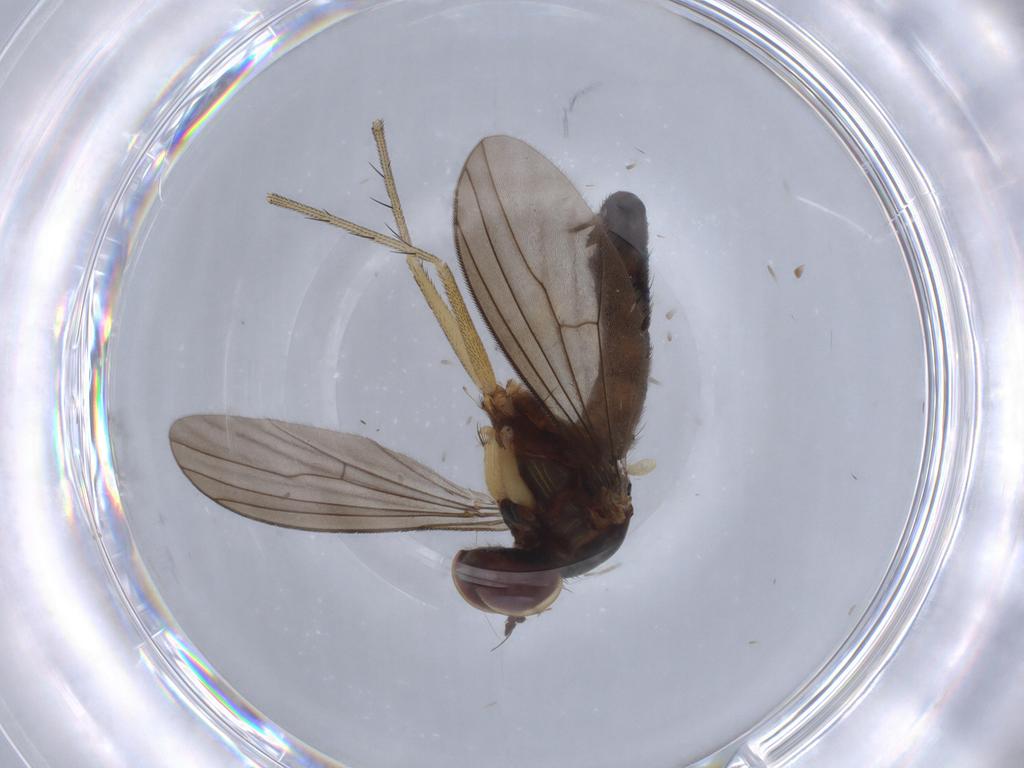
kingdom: Animalia
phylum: Arthropoda
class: Insecta
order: Diptera
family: Dolichopodidae
